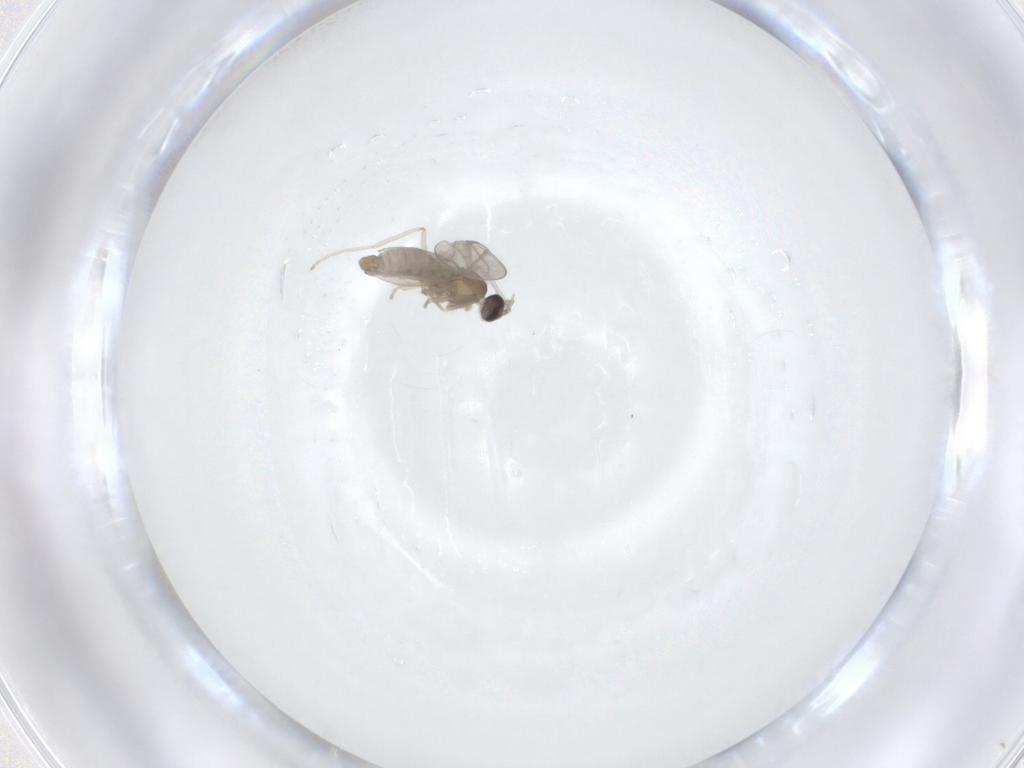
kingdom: Animalia
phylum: Arthropoda
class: Insecta
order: Diptera
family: Cecidomyiidae
